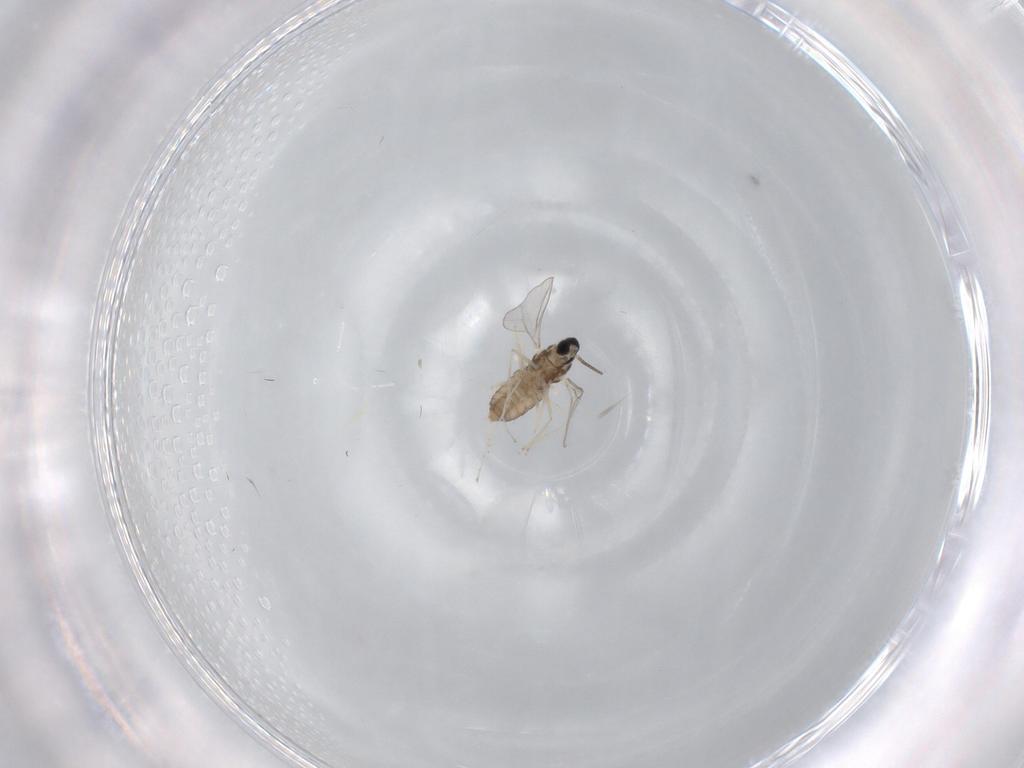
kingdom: Animalia
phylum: Arthropoda
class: Insecta
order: Diptera
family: Cecidomyiidae
